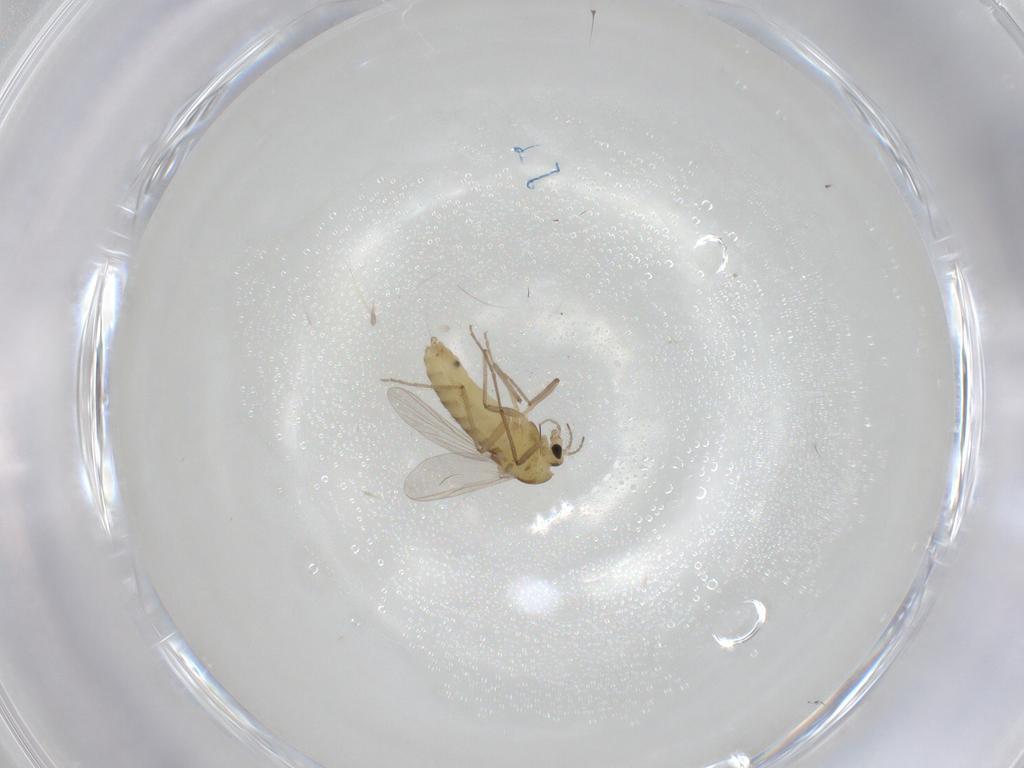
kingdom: Animalia
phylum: Arthropoda
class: Insecta
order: Diptera
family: Chironomidae
